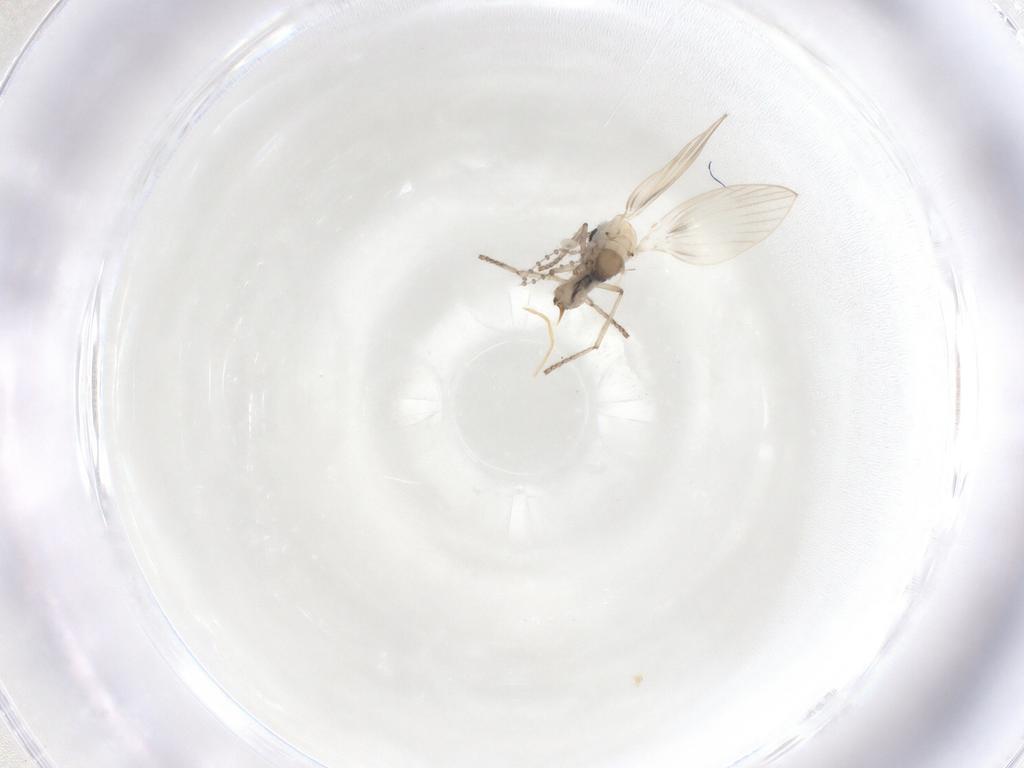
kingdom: Animalia
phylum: Arthropoda
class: Insecta
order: Diptera
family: Psychodidae
